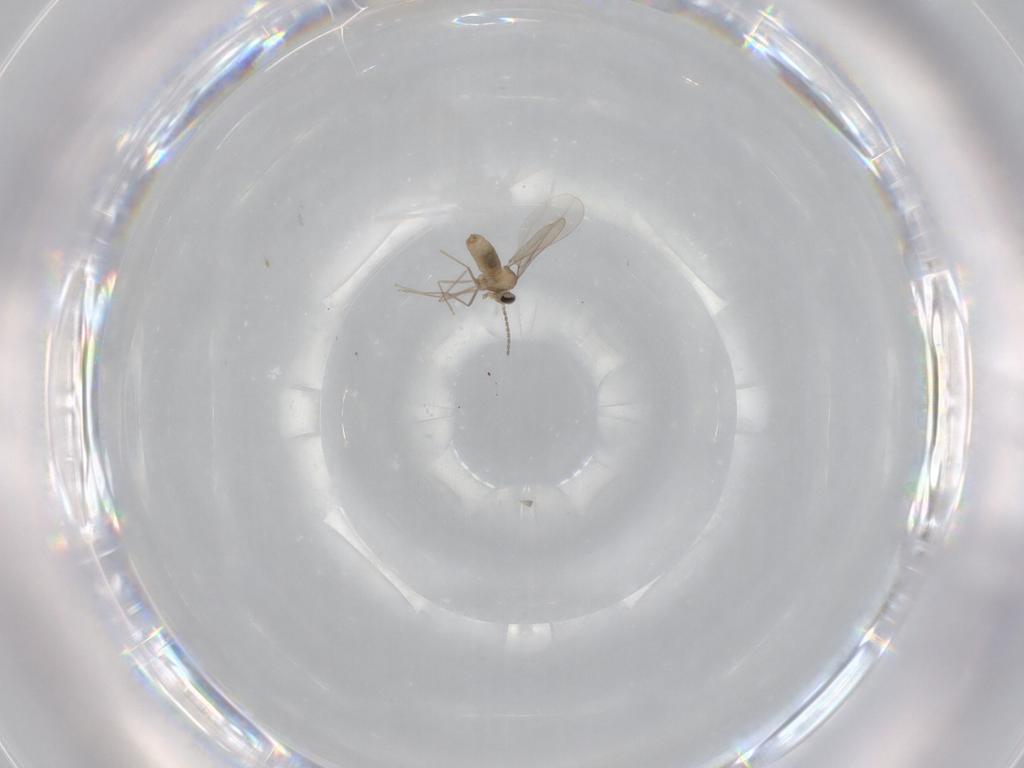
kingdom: Animalia
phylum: Arthropoda
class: Insecta
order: Diptera
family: Cecidomyiidae
